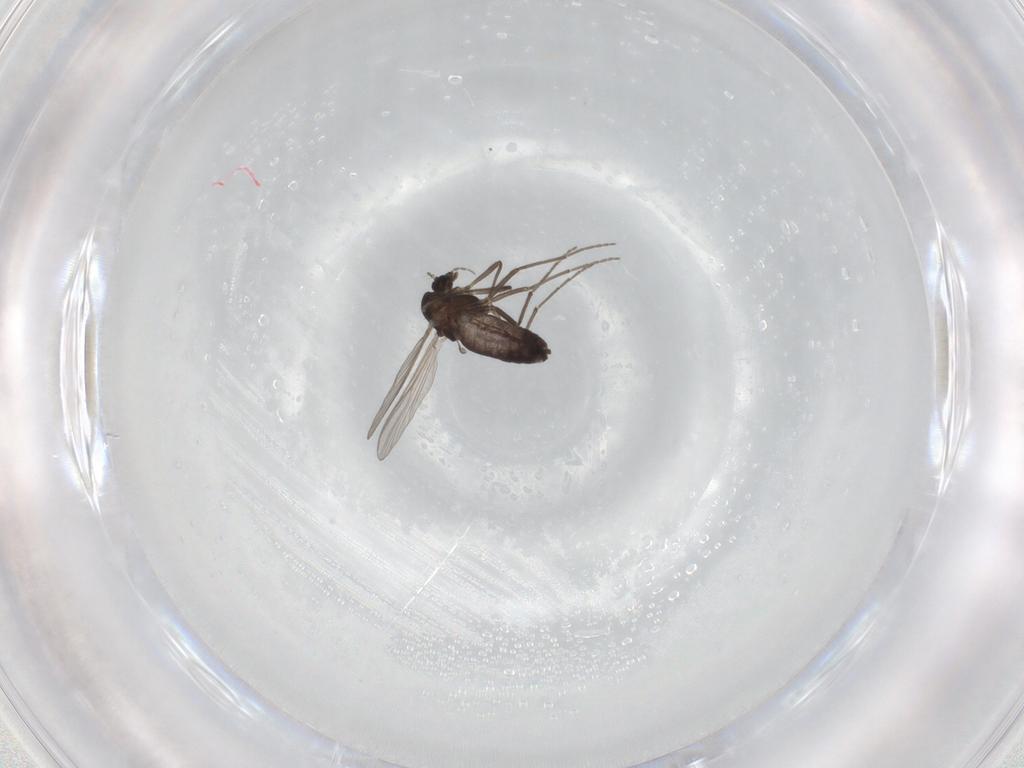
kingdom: Animalia
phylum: Arthropoda
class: Insecta
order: Diptera
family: Chironomidae
